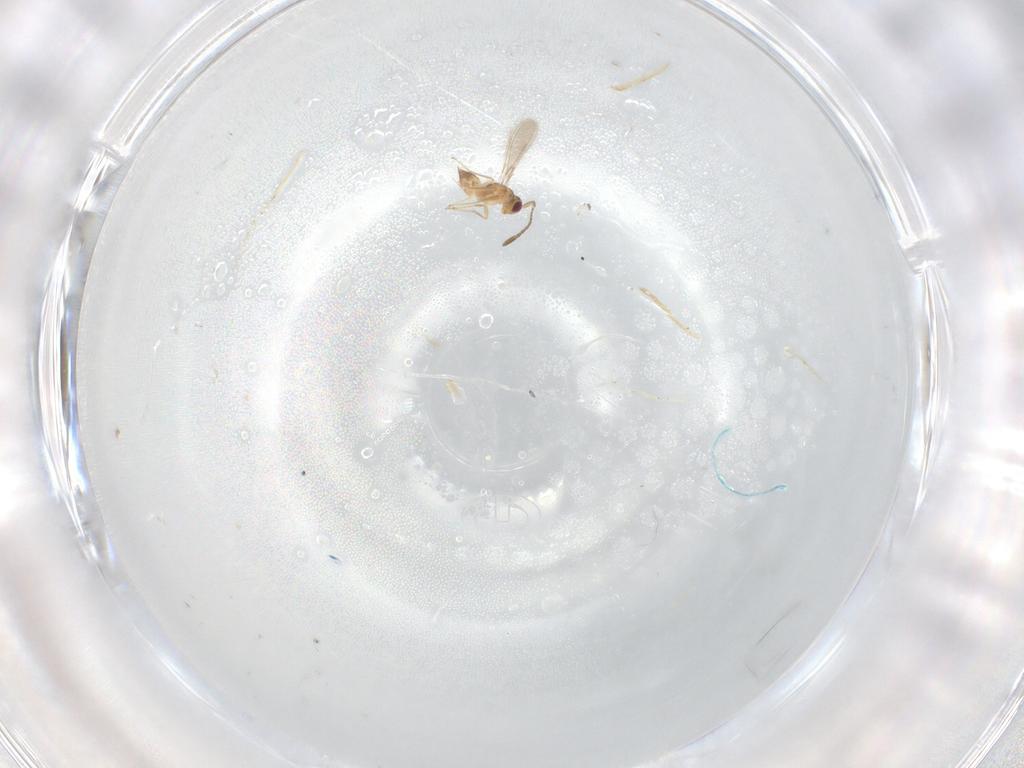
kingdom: Animalia
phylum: Arthropoda
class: Insecta
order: Hymenoptera
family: Mymaridae
